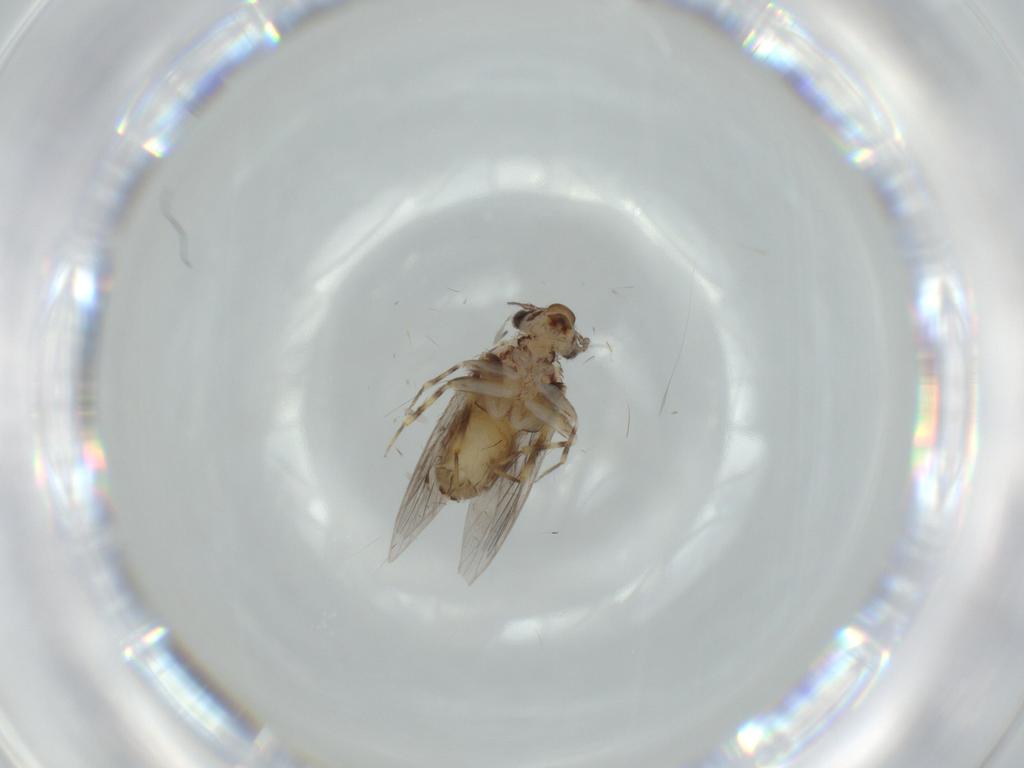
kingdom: Animalia
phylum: Arthropoda
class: Insecta
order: Psocodea
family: Lepidopsocidae
